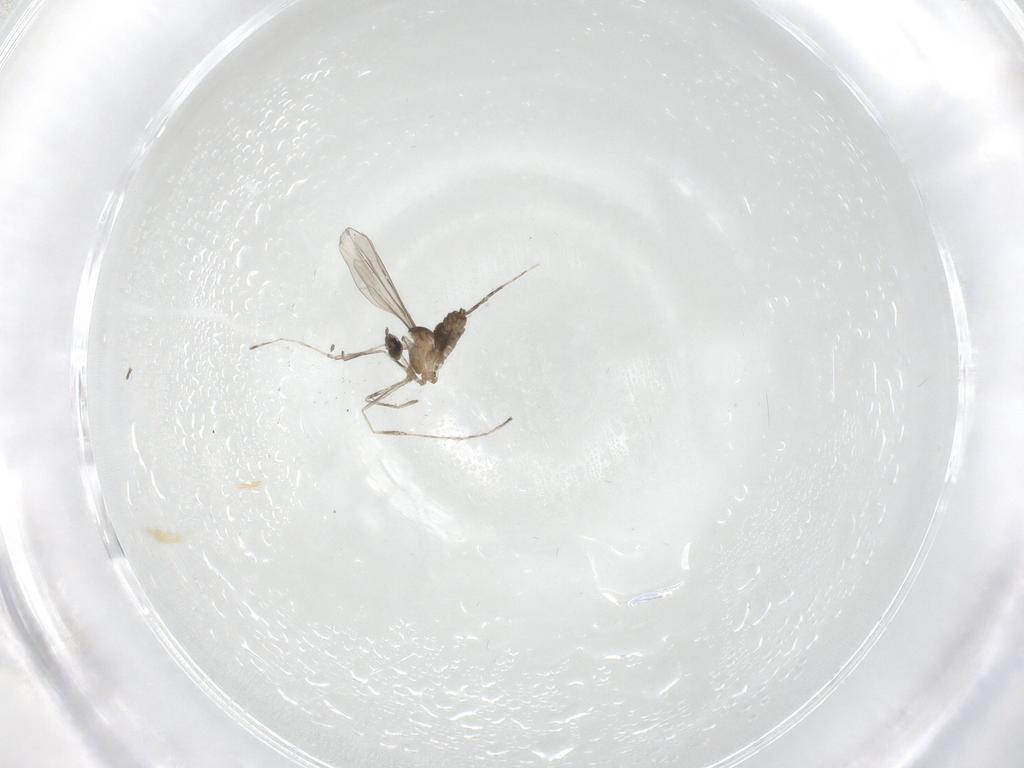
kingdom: Animalia
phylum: Arthropoda
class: Insecta
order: Diptera
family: Cecidomyiidae
